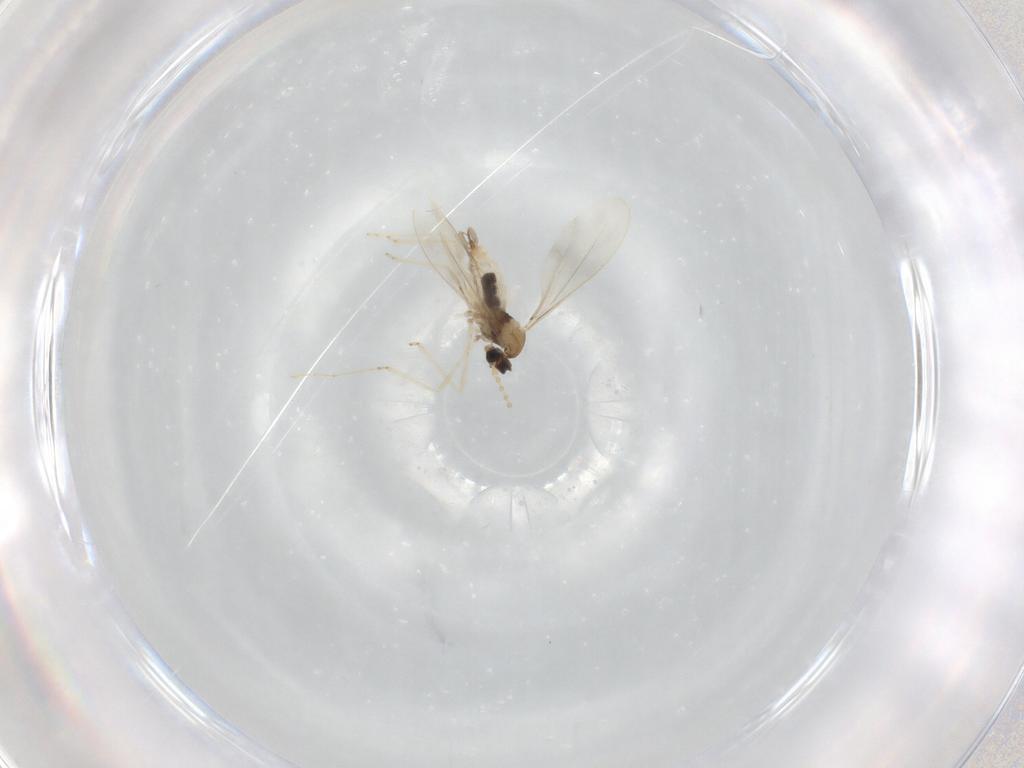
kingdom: Animalia
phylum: Arthropoda
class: Insecta
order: Diptera
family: Cecidomyiidae
